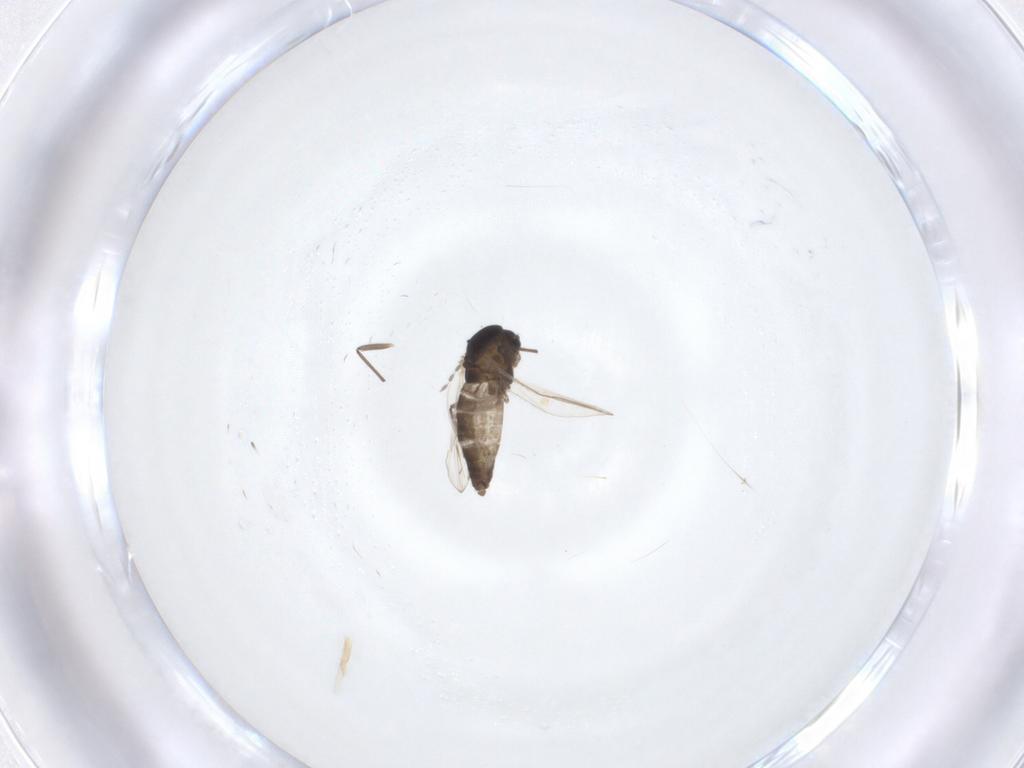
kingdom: Animalia
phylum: Arthropoda
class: Insecta
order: Diptera
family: Chironomidae
